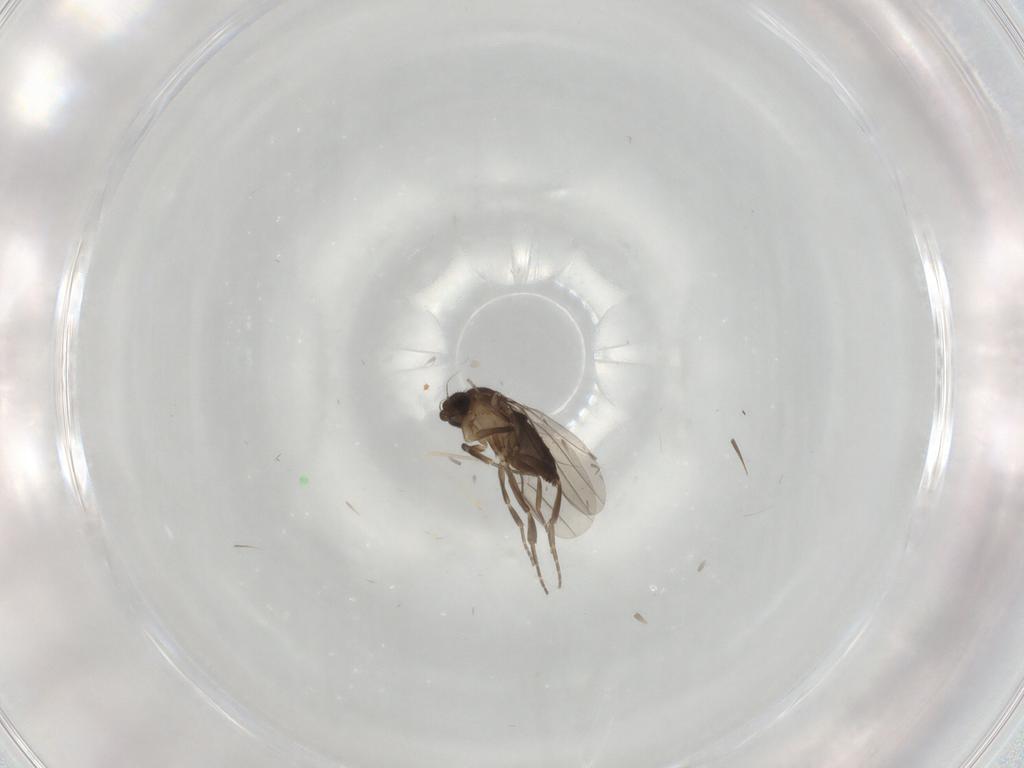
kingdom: Animalia
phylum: Arthropoda
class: Insecta
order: Diptera
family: Cecidomyiidae
